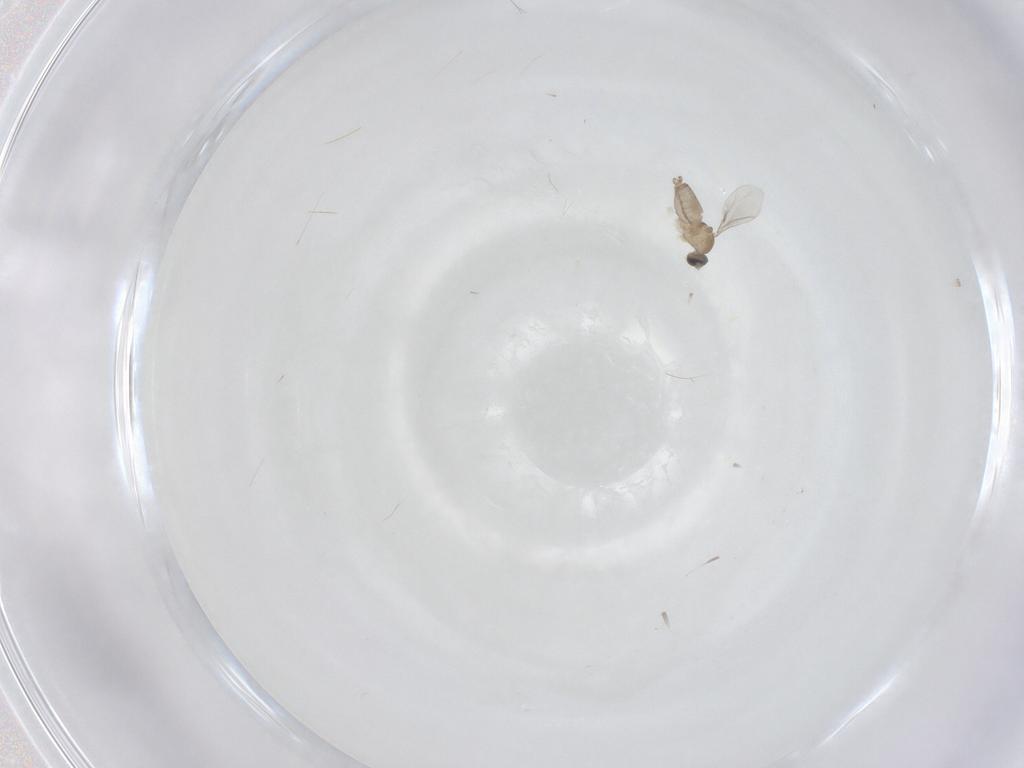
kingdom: Animalia
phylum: Arthropoda
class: Insecta
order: Diptera
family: Cecidomyiidae
